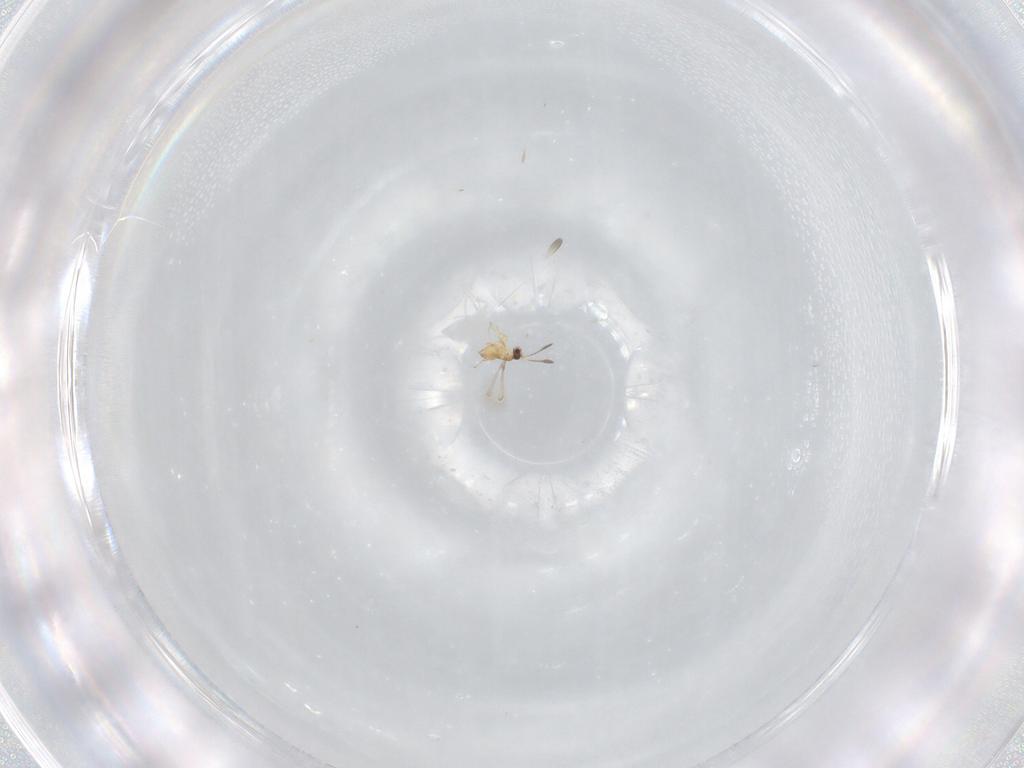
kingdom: Animalia
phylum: Arthropoda
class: Insecta
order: Hymenoptera
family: Mymaridae
